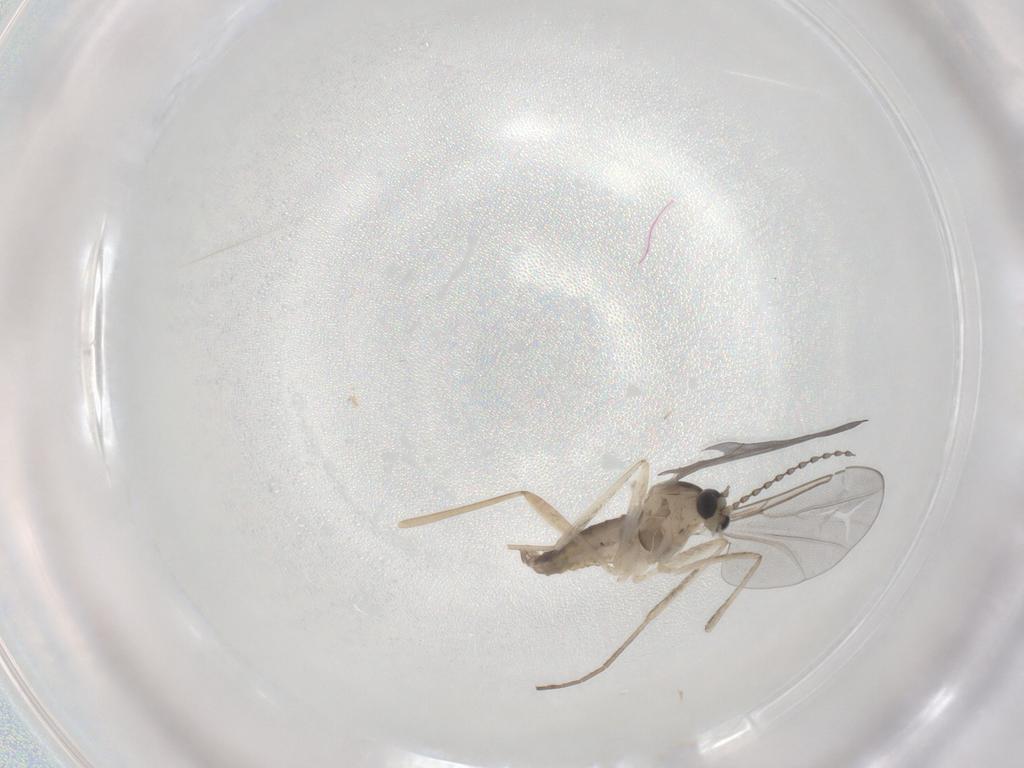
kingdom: Animalia
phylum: Arthropoda
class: Insecta
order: Diptera
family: Cecidomyiidae
